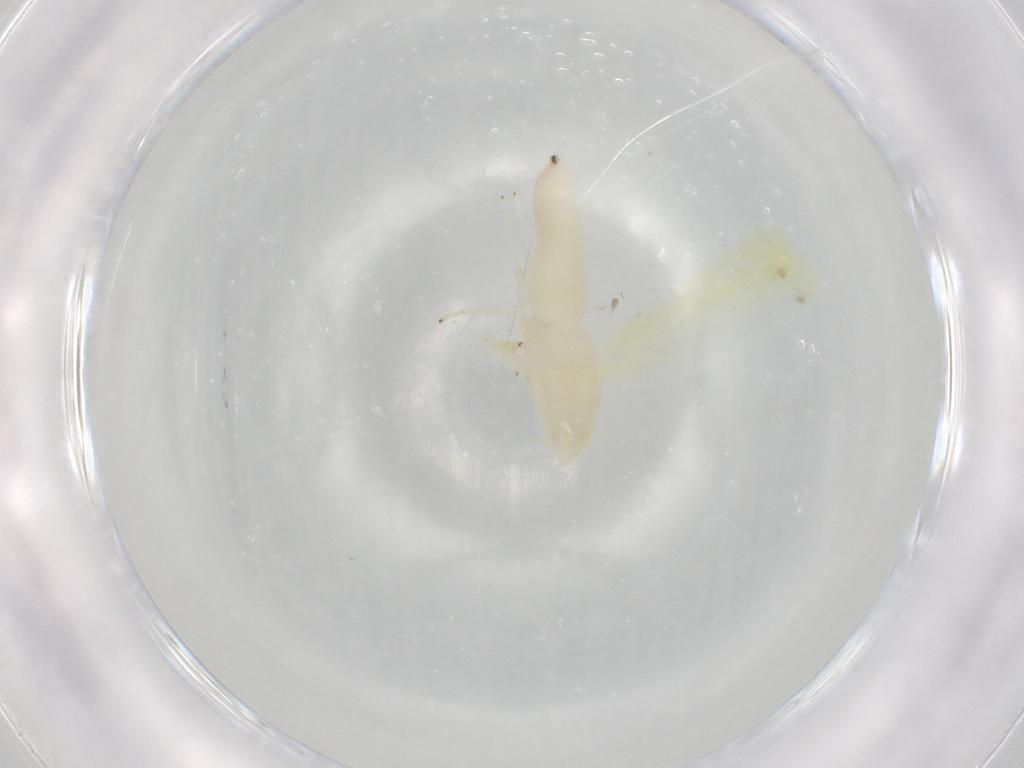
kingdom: Animalia
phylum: Arthropoda
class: Insecta
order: Hemiptera
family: Cicadellidae
